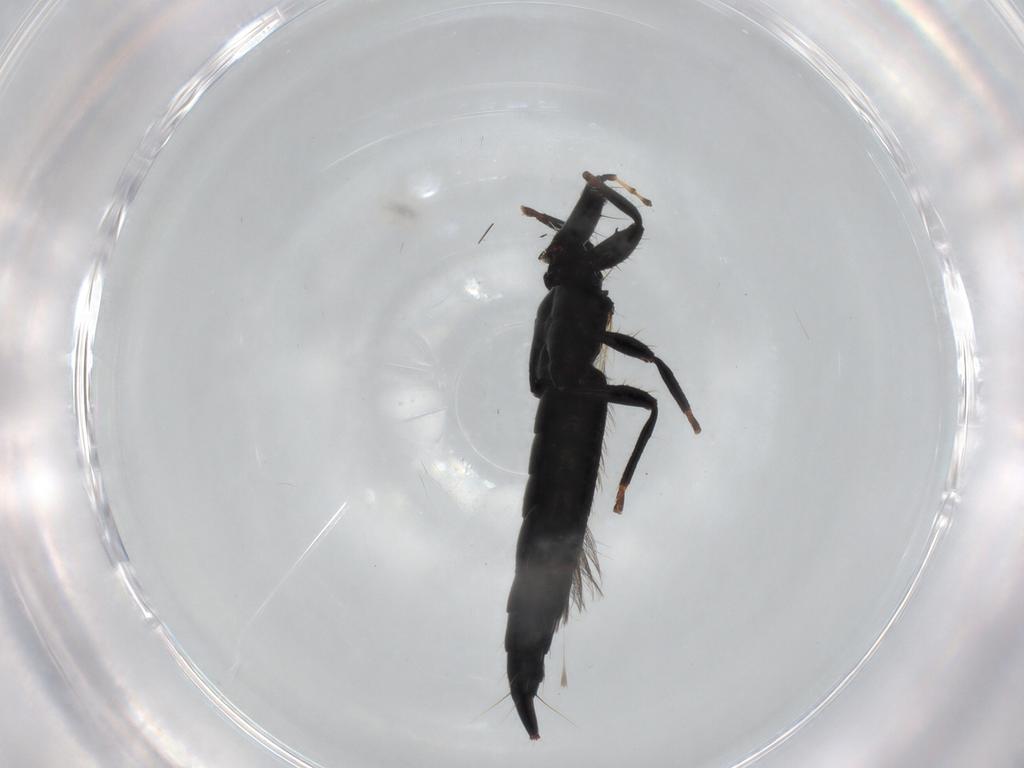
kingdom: Animalia
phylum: Arthropoda
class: Insecta
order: Thysanoptera
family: Phlaeothripidae
